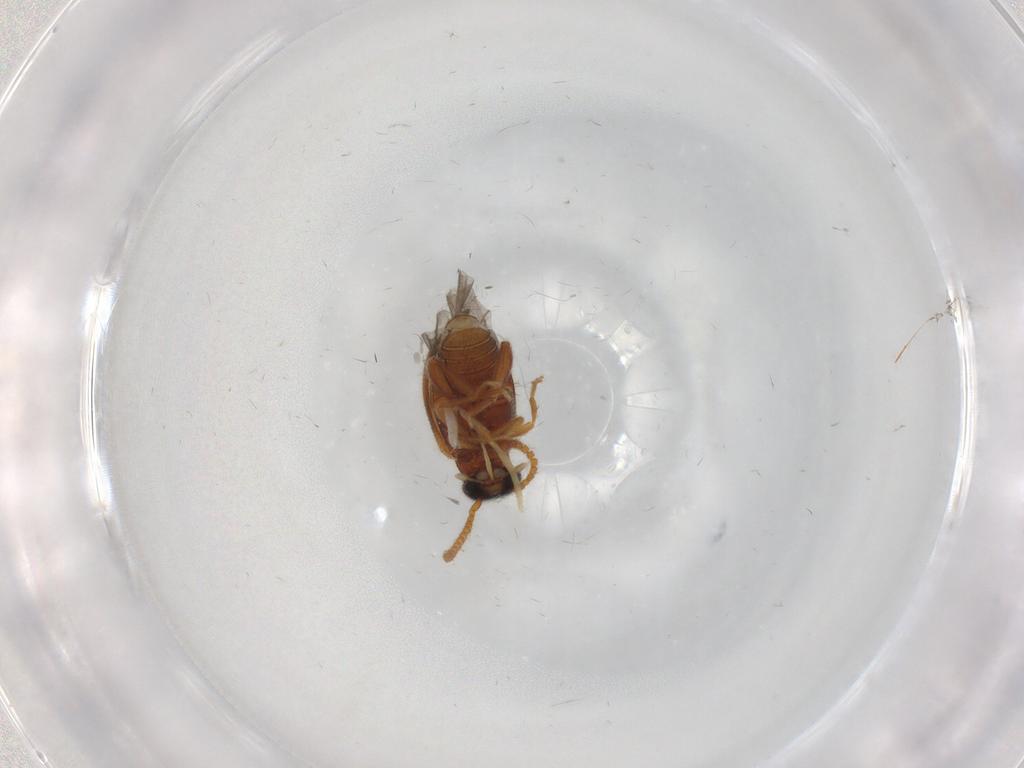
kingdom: Animalia
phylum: Arthropoda
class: Insecta
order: Coleoptera
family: Aderidae
